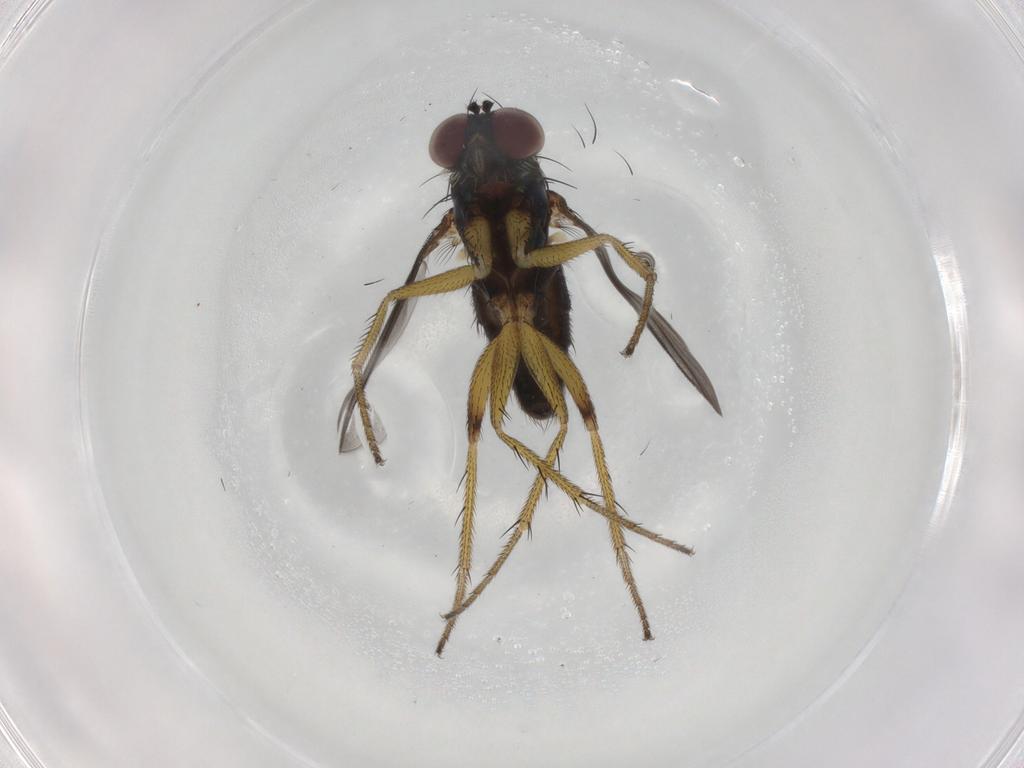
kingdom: Animalia
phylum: Arthropoda
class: Insecta
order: Diptera
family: Dolichopodidae
